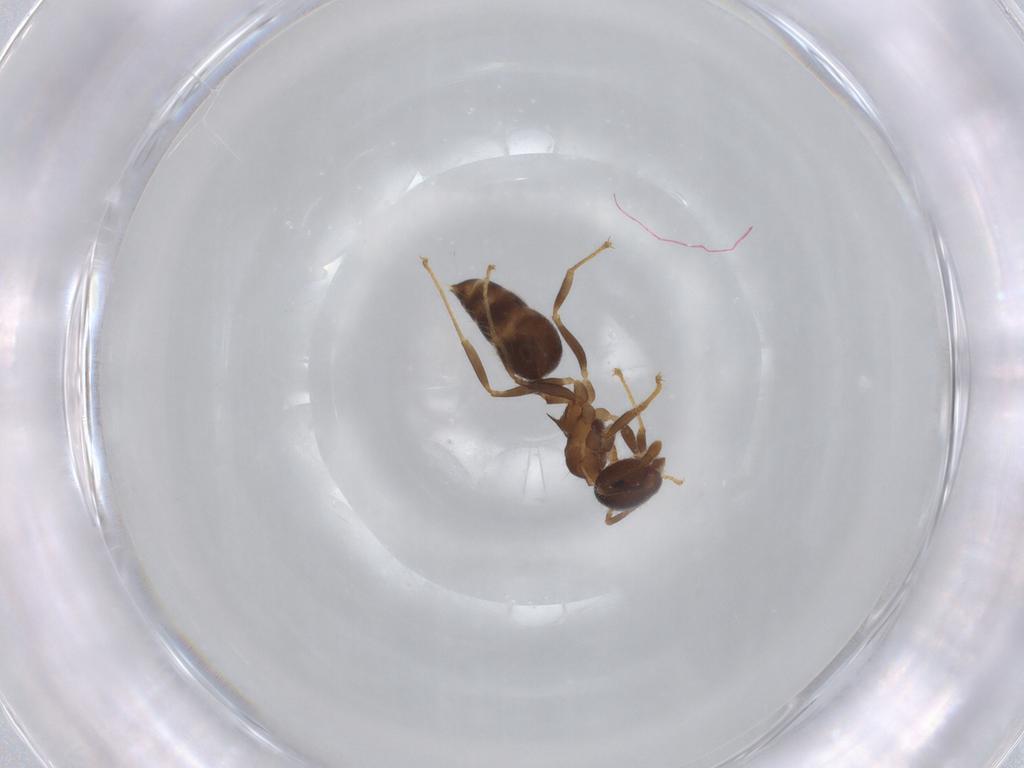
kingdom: Animalia
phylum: Arthropoda
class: Insecta
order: Hymenoptera
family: Formicidae
